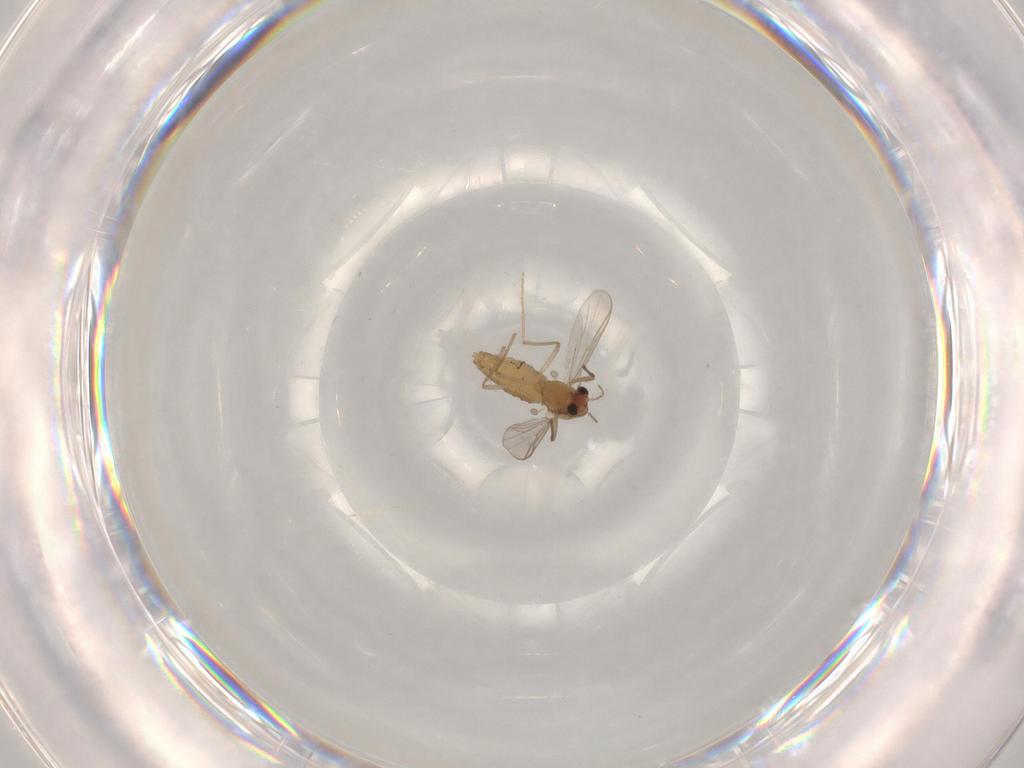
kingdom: Animalia
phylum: Arthropoda
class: Insecta
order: Diptera
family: Chironomidae
